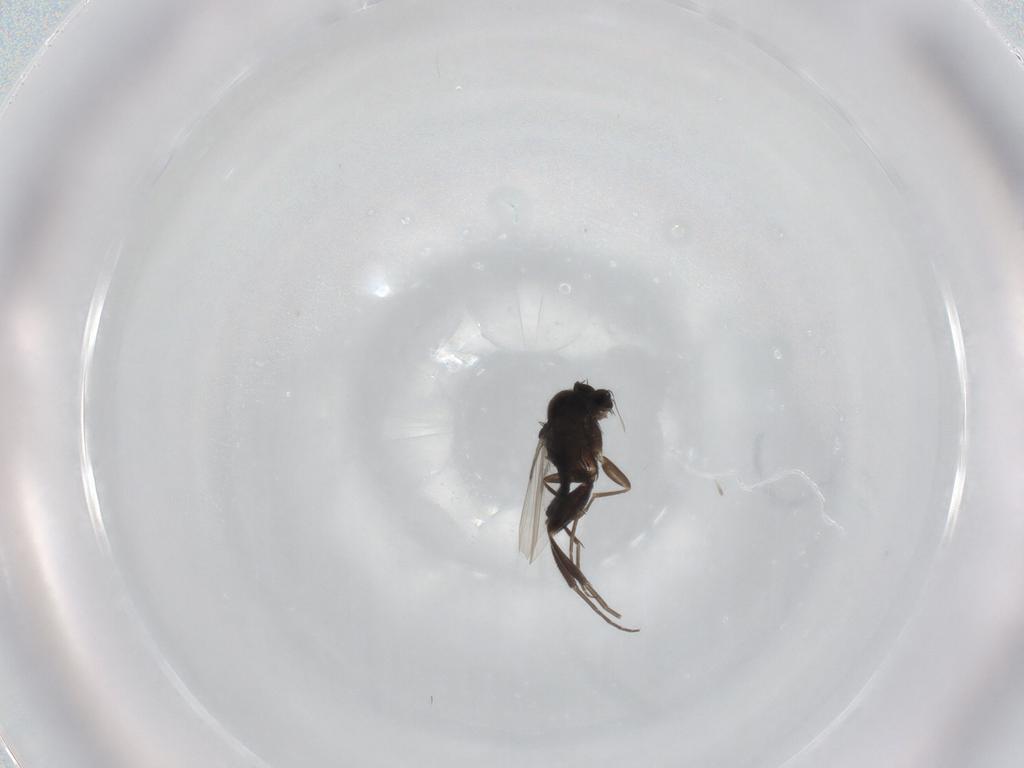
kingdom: Animalia
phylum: Arthropoda
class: Insecta
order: Diptera
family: Phoridae
